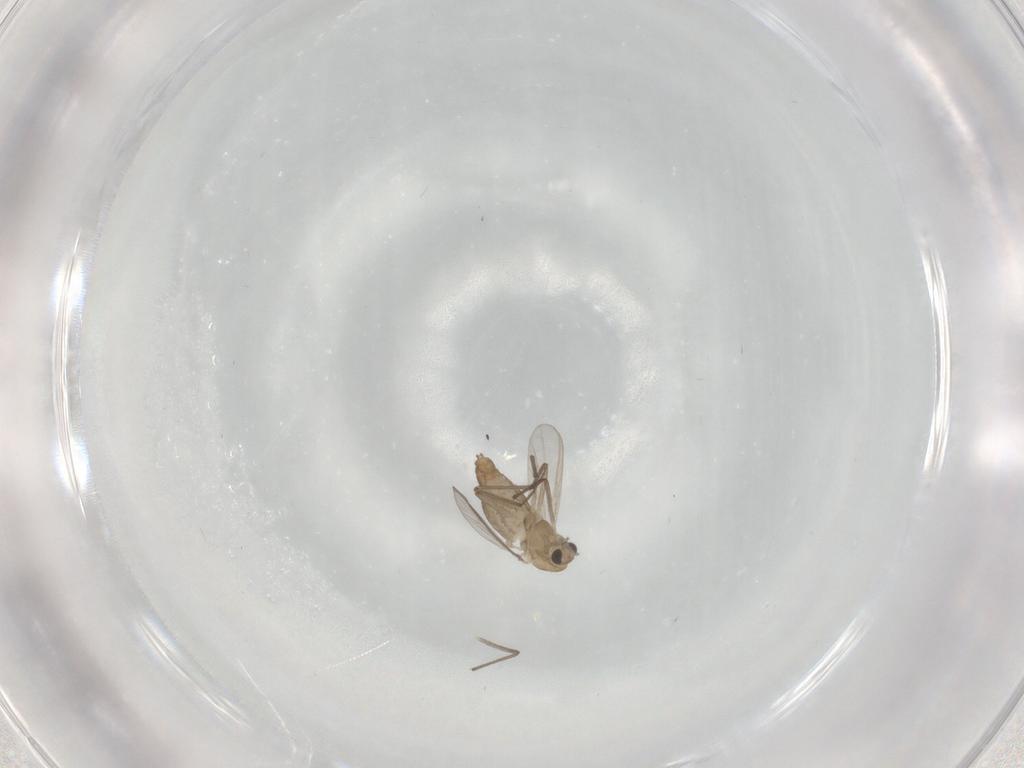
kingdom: Animalia
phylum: Arthropoda
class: Insecta
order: Diptera
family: Chironomidae
